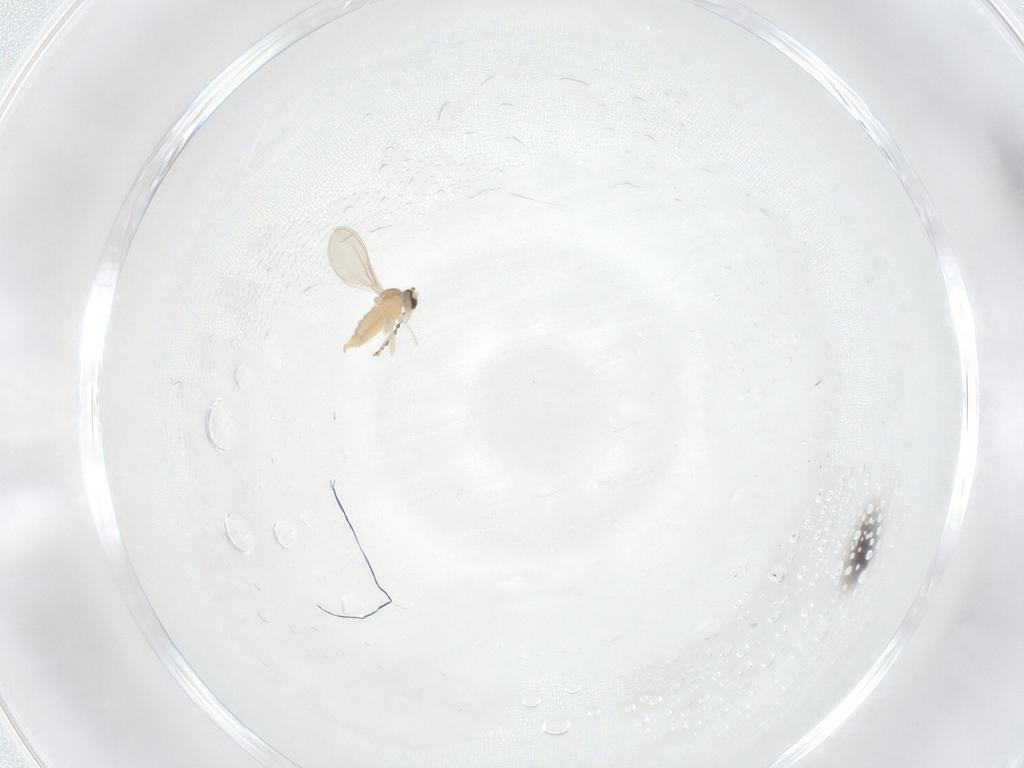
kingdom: Animalia
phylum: Arthropoda
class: Insecta
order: Diptera
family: Cecidomyiidae
